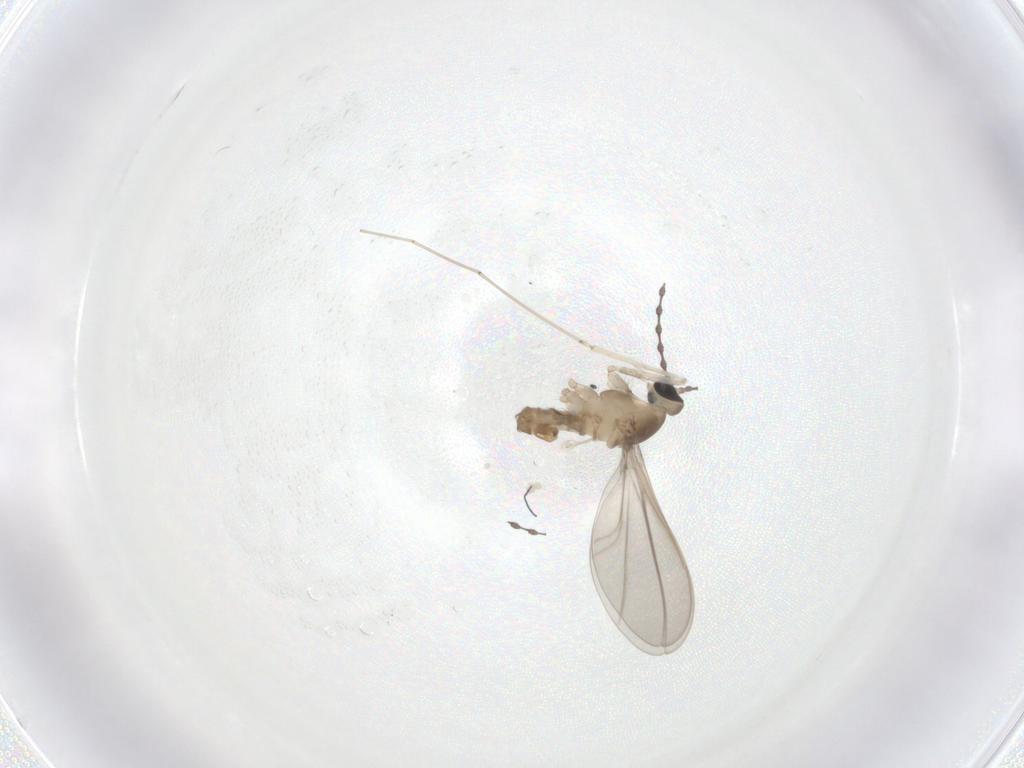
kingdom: Animalia
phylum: Arthropoda
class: Insecta
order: Diptera
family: Cecidomyiidae
